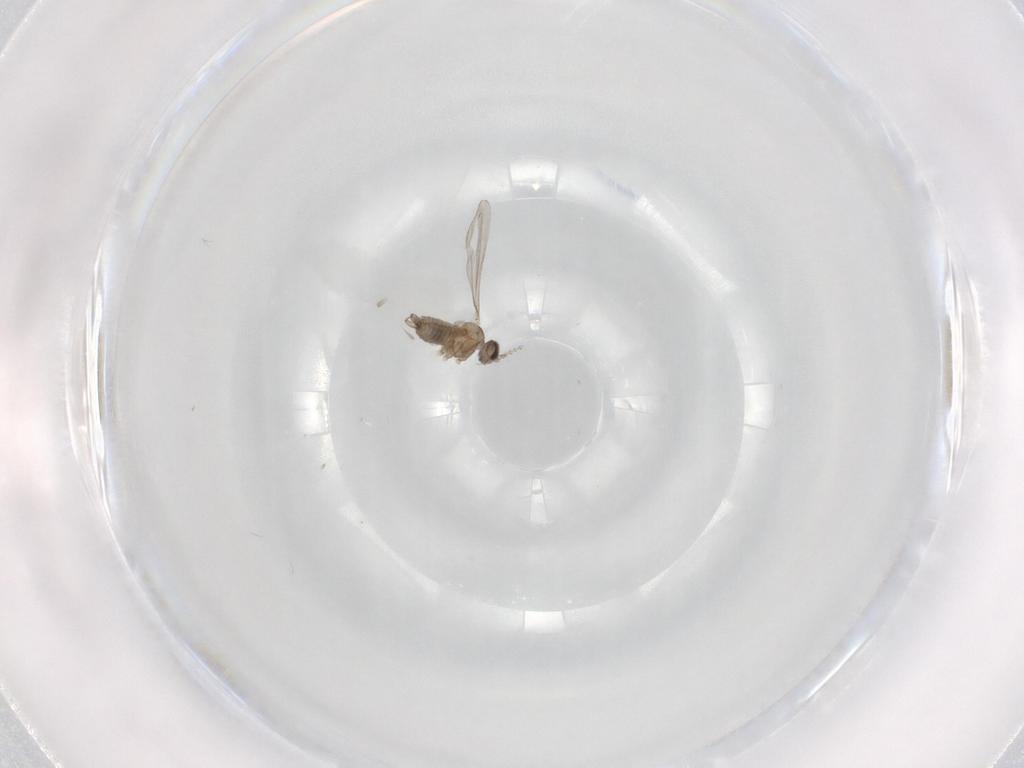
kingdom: Animalia
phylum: Arthropoda
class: Insecta
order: Diptera
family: Cecidomyiidae
